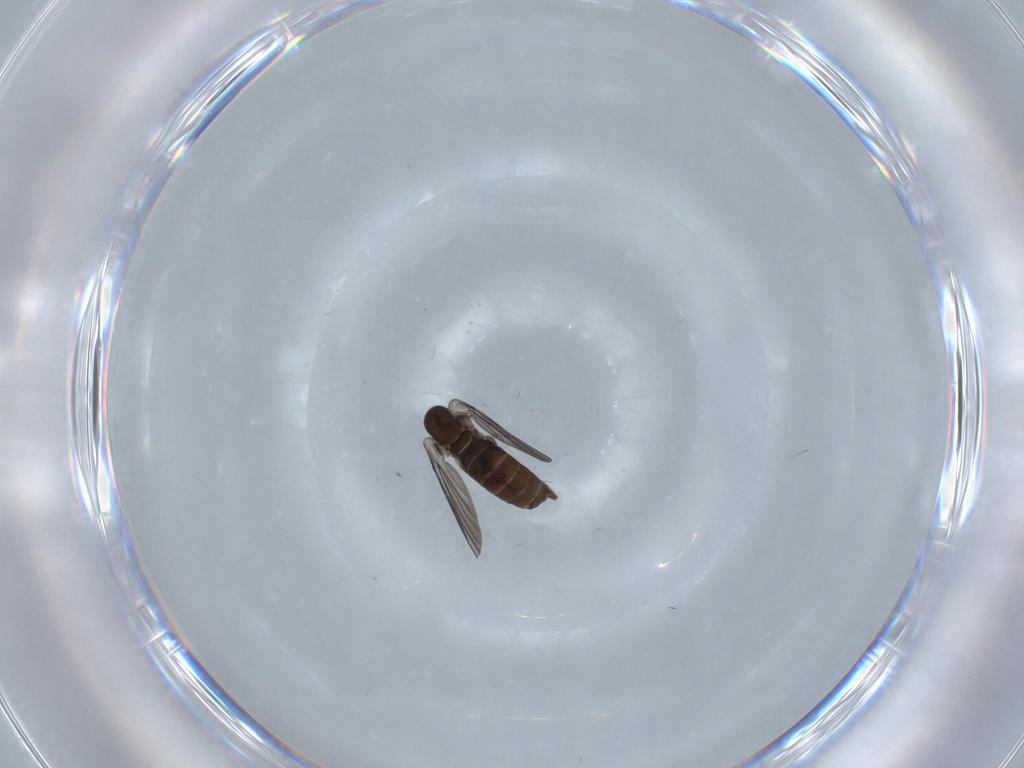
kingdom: Animalia
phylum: Arthropoda
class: Insecta
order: Diptera
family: Phoridae
